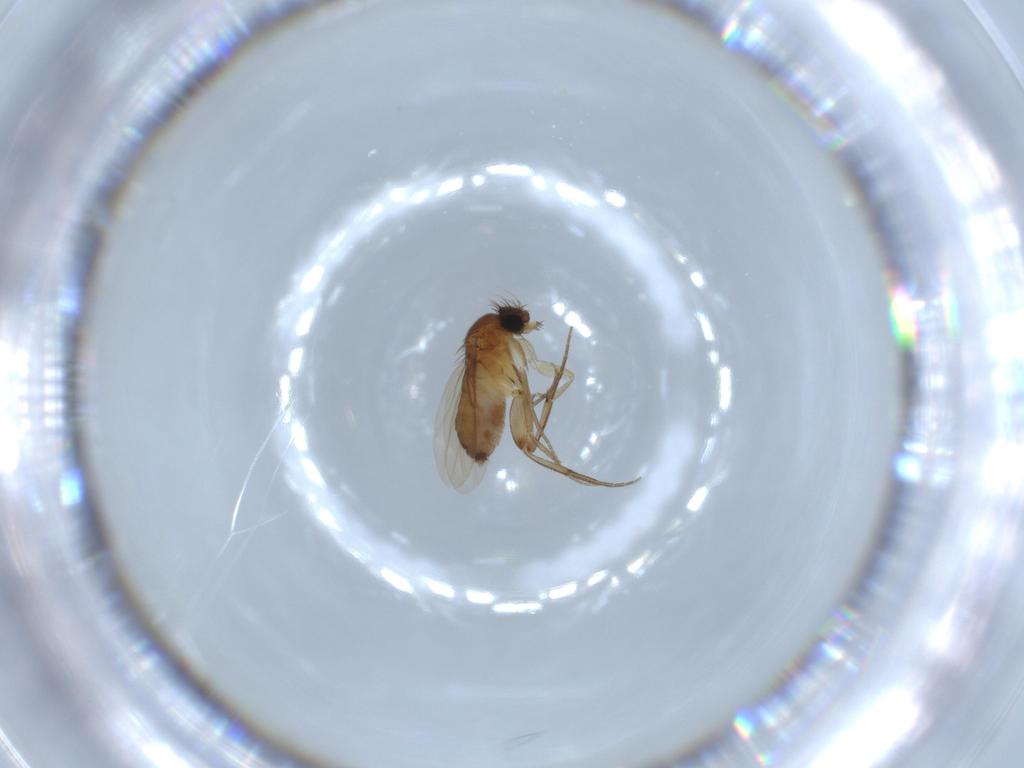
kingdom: Animalia
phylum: Arthropoda
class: Insecta
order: Diptera
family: Phoridae
